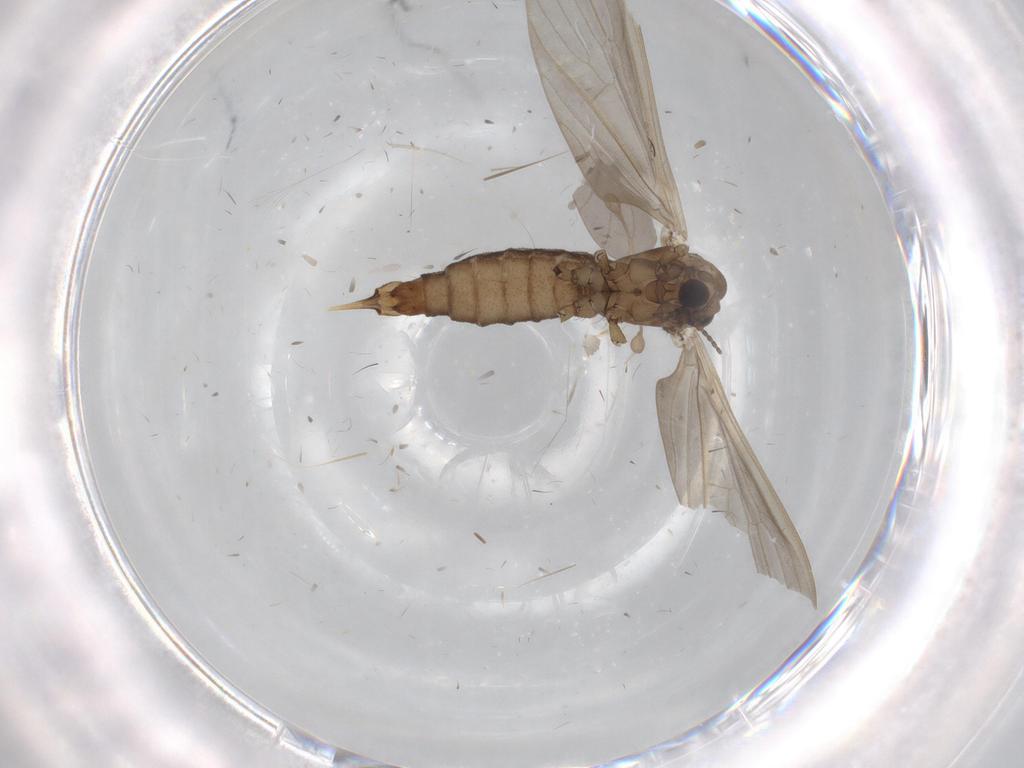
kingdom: Animalia
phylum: Arthropoda
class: Insecta
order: Diptera
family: Limoniidae
